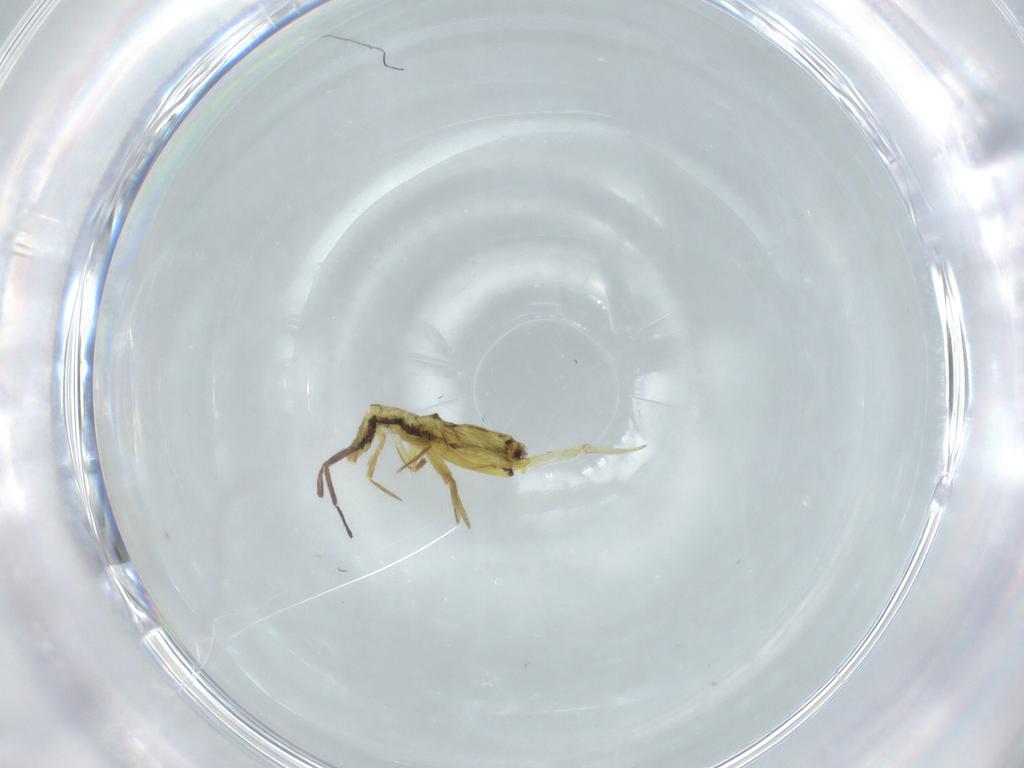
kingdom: Animalia
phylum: Arthropoda
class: Collembola
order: Entomobryomorpha
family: Entomobryidae
